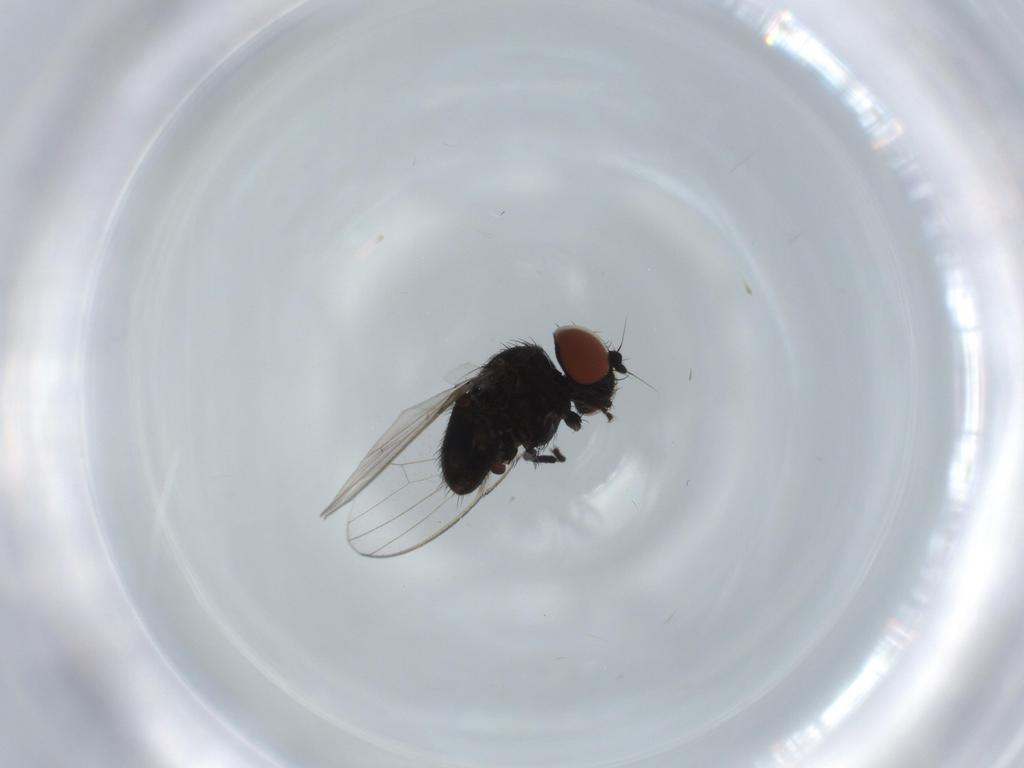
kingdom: Animalia
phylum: Arthropoda
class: Insecta
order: Diptera
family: Milichiidae
